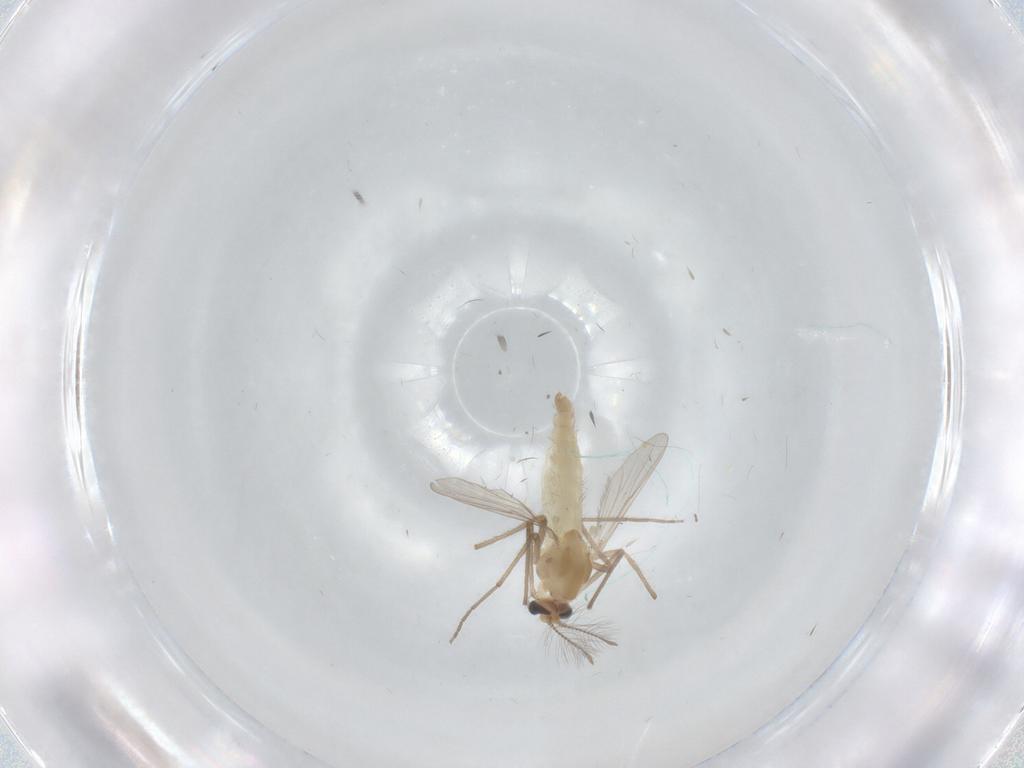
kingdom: Animalia
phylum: Arthropoda
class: Insecta
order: Diptera
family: Chironomidae
